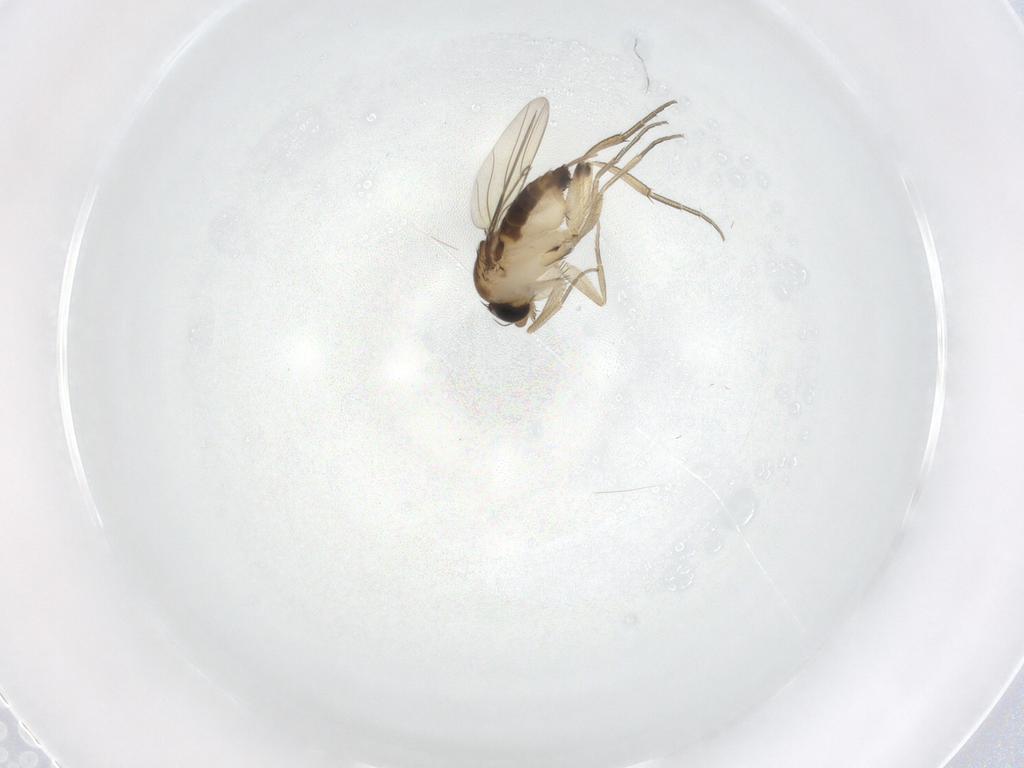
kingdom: Animalia
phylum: Arthropoda
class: Insecta
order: Diptera
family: Phoridae
